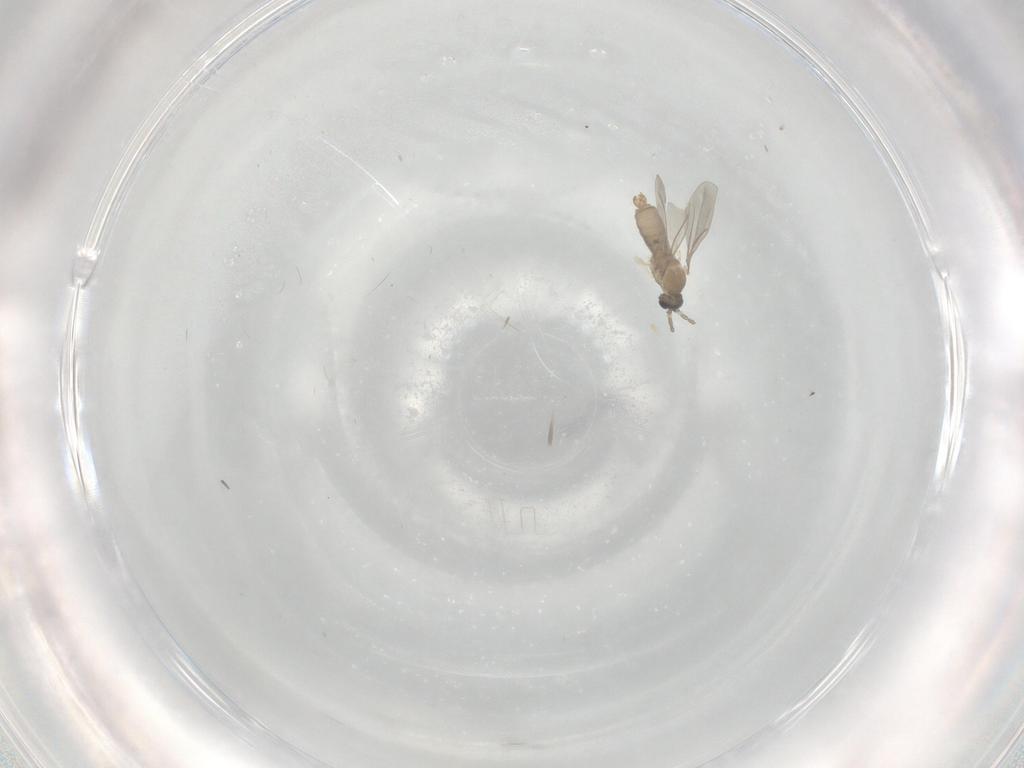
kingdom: Animalia
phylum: Arthropoda
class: Insecta
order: Diptera
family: Cecidomyiidae
